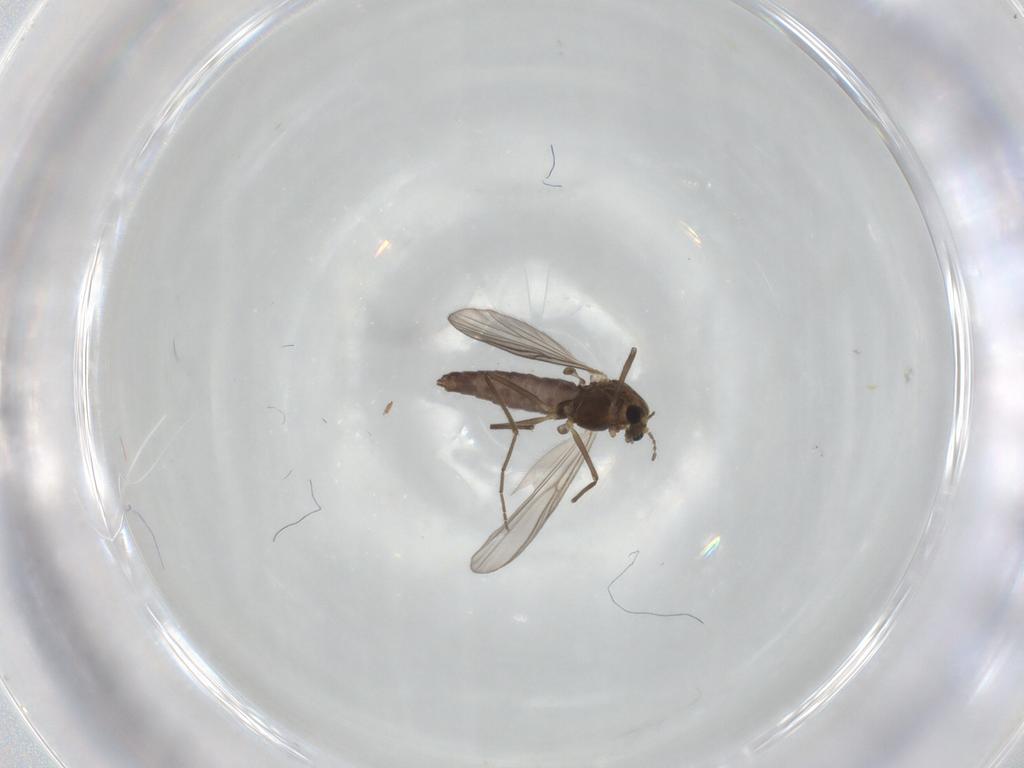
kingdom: Animalia
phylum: Arthropoda
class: Insecta
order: Diptera
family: Chironomidae
